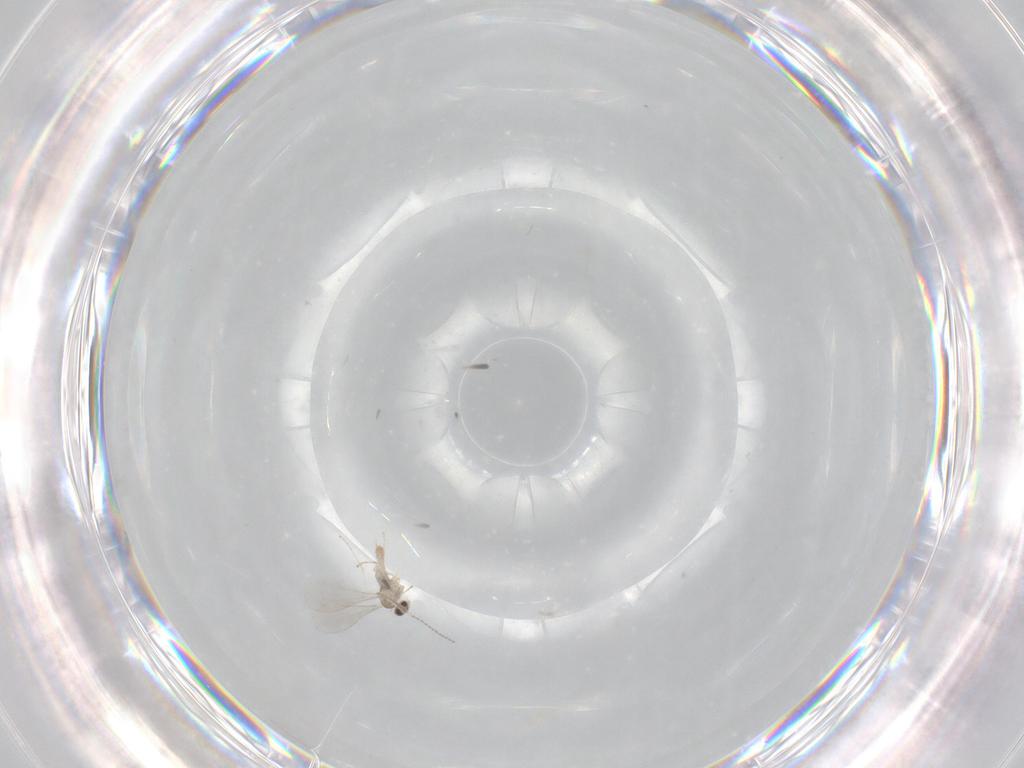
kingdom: Animalia
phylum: Arthropoda
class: Insecta
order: Diptera
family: Cecidomyiidae
